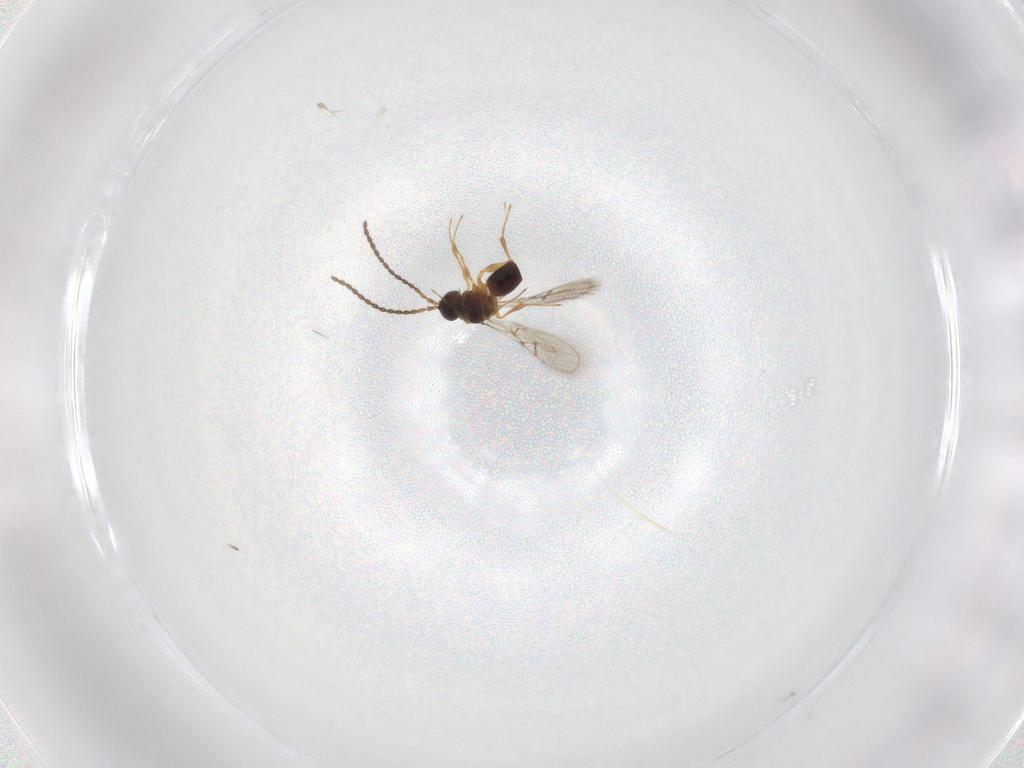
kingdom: Animalia
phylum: Arthropoda
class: Insecta
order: Hymenoptera
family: Figitidae
